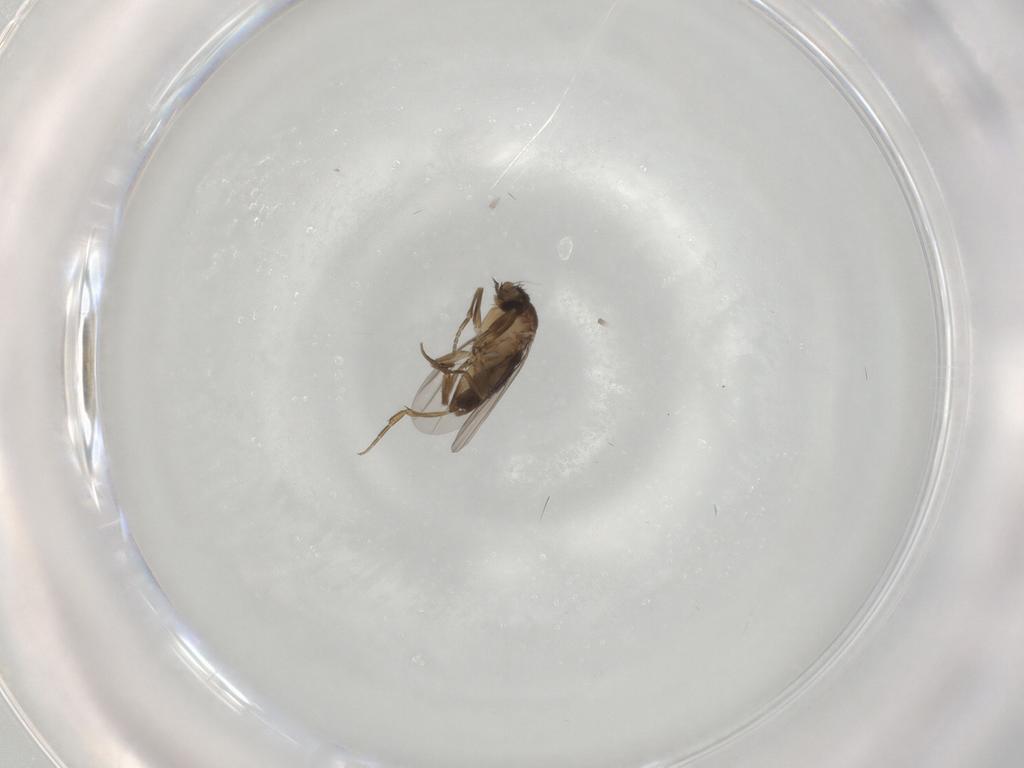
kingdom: Animalia
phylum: Arthropoda
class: Insecta
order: Diptera
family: Phoridae
